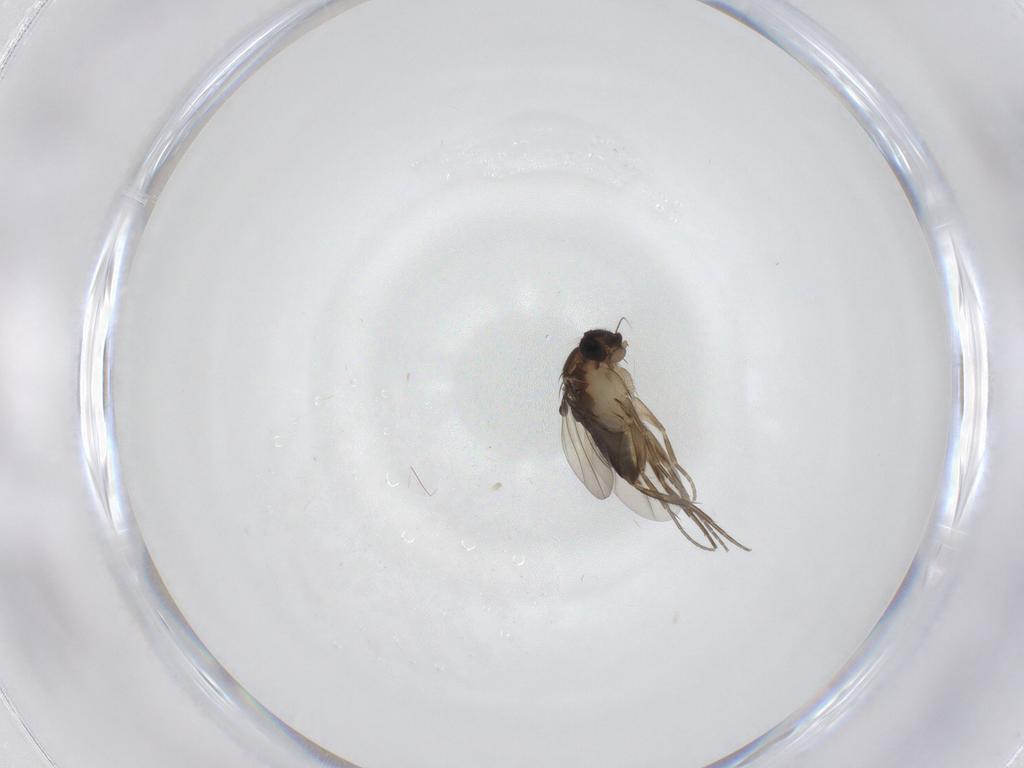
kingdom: Animalia
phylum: Arthropoda
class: Insecta
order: Diptera
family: Phoridae
